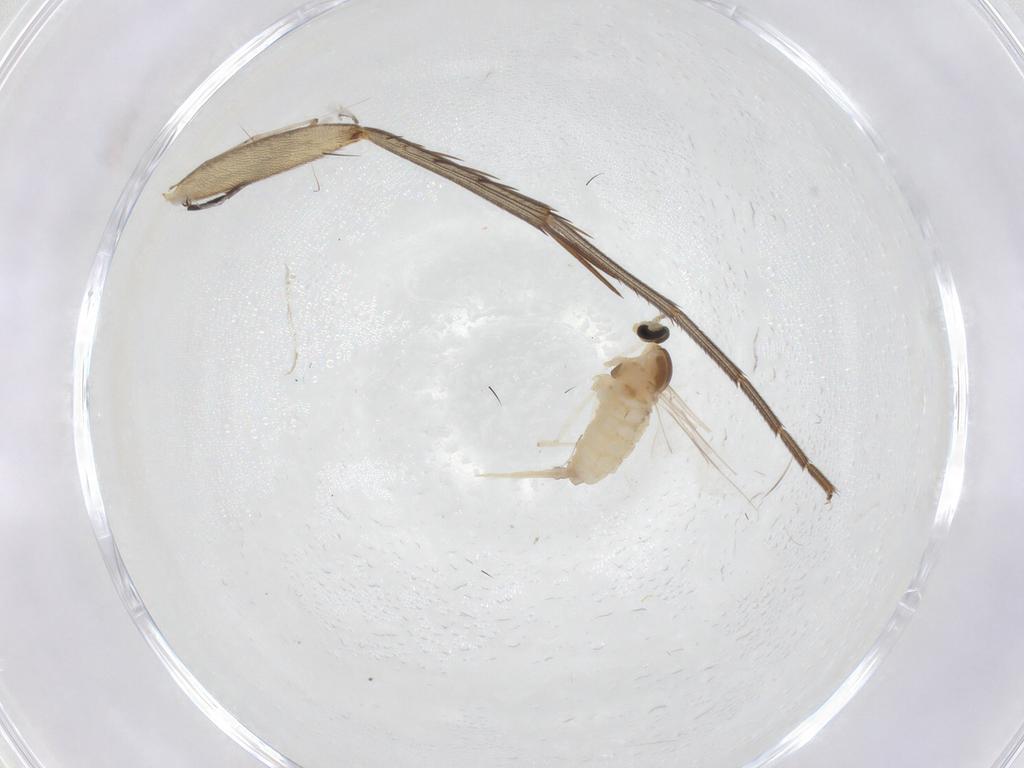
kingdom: Animalia
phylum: Arthropoda
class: Insecta
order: Diptera
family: Cecidomyiidae
